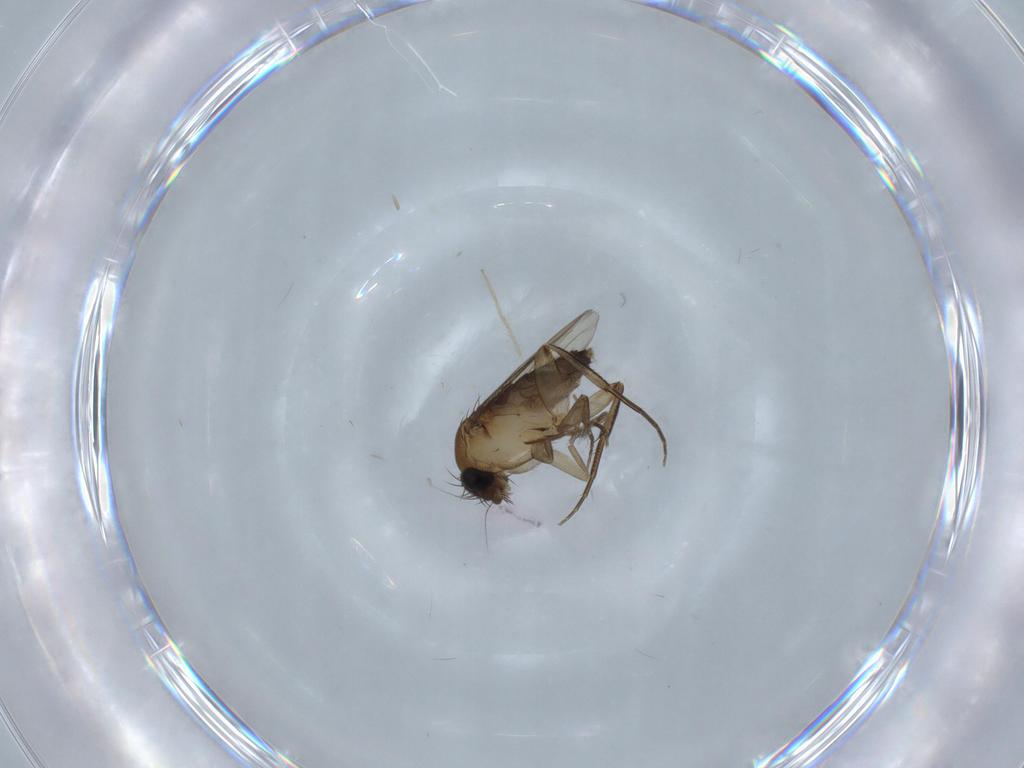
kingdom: Animalia
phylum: Arthropoda
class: Insecta
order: Diptera
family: Phoridae
